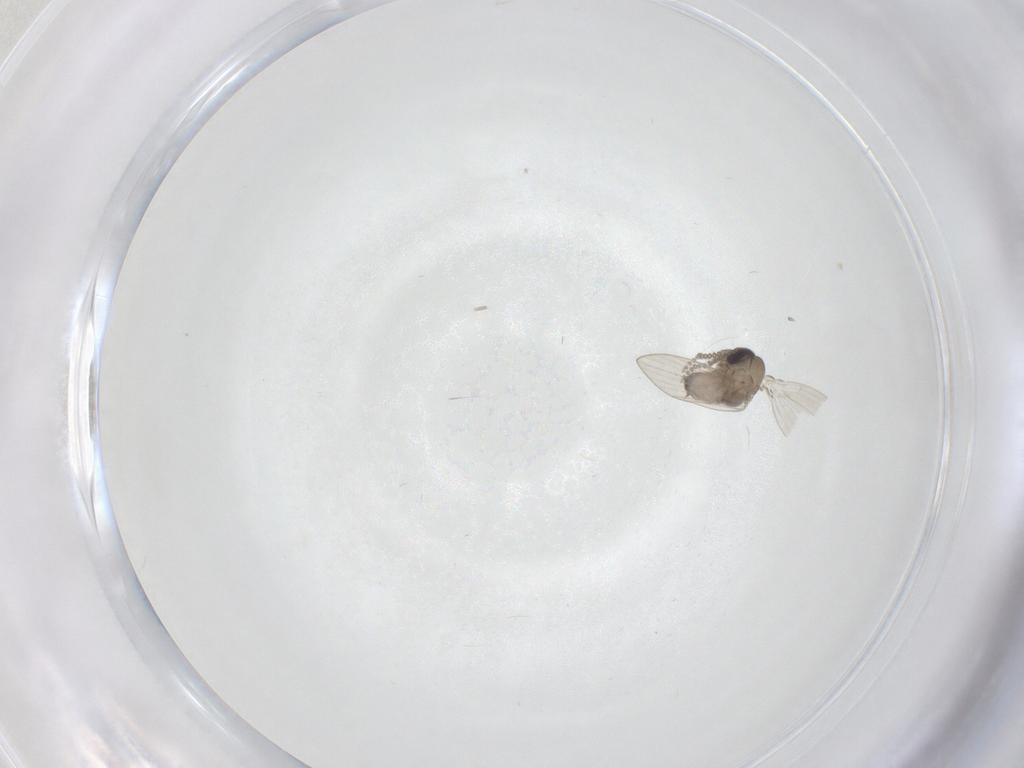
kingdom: Animalia
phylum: Arthropoda
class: Insecta
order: Diptera
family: Psychodidae
